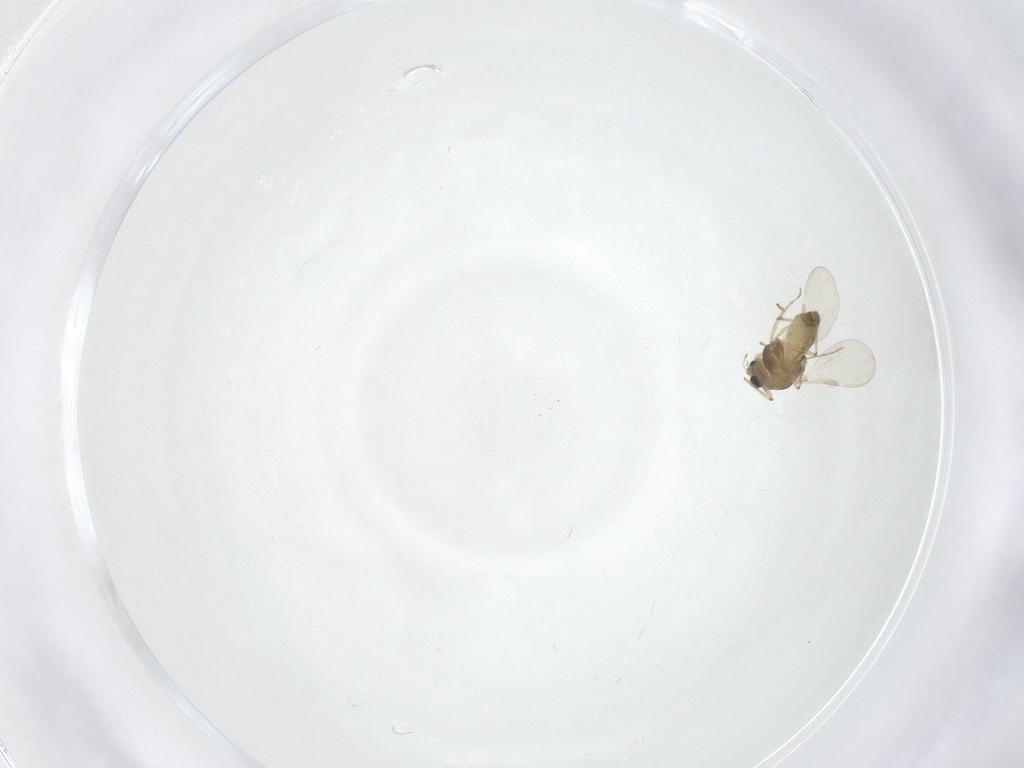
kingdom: Animalia
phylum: Arthropoda
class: Insecta
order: Diptera
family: Chironomidae
